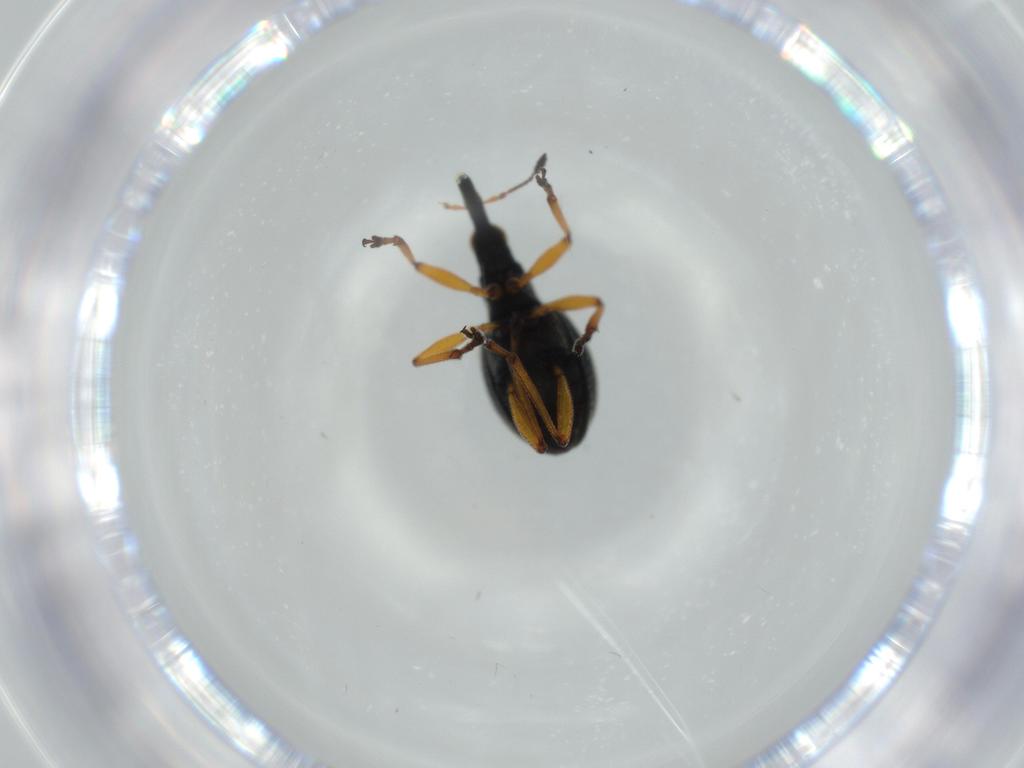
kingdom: Animalia
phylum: Arthropoda
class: Insecta
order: Coleoptera
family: Brentidae
